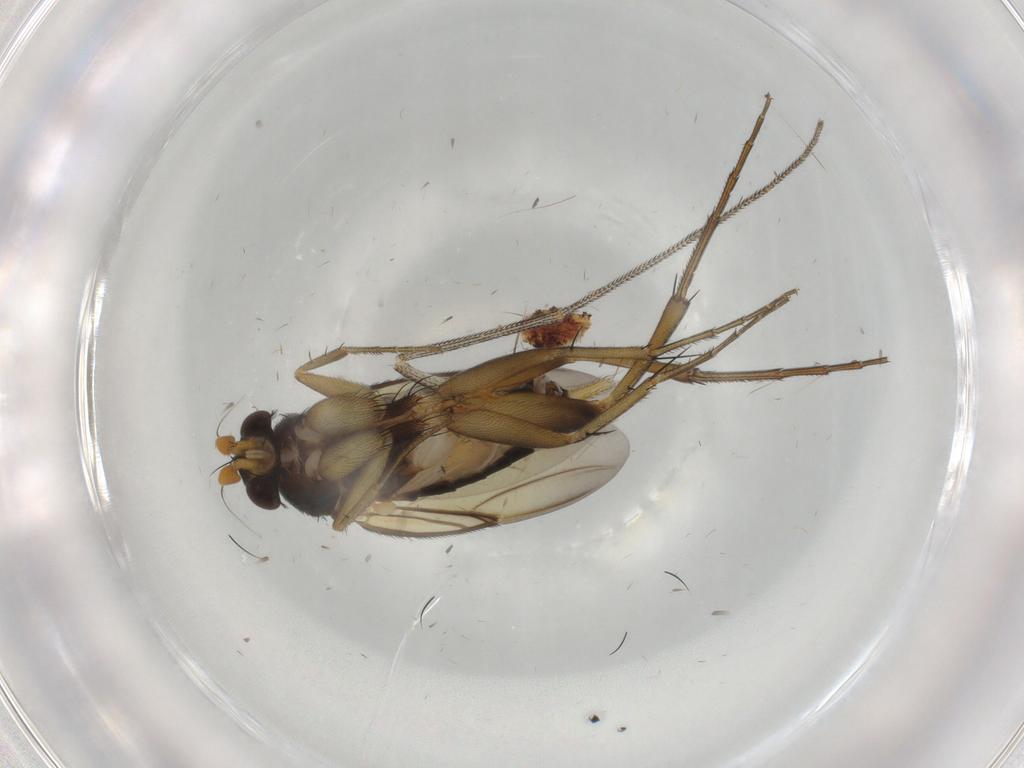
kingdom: Animalia
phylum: Arthropoda
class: Insecta
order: Diptera
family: Phoridae
